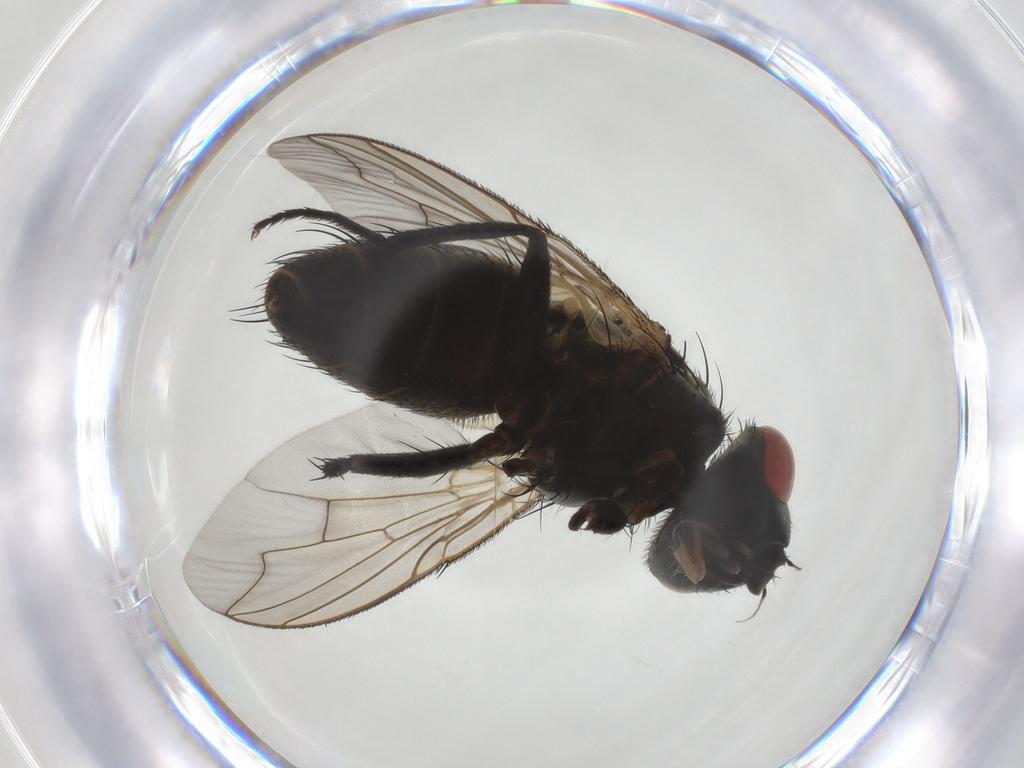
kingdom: Animalia
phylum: Arthropoda
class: Insecta
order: Diptera
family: Sarcophagidae
